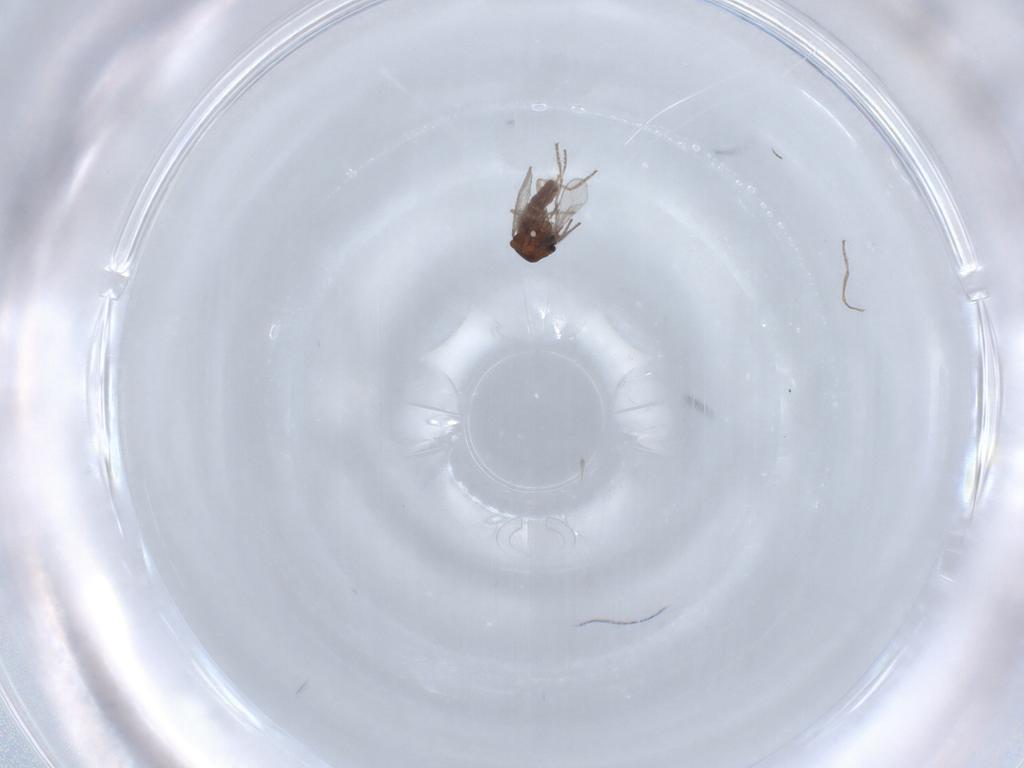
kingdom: Animalia
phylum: Arthropoda
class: Insecta
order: Diptera
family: Ceratopogonidae
